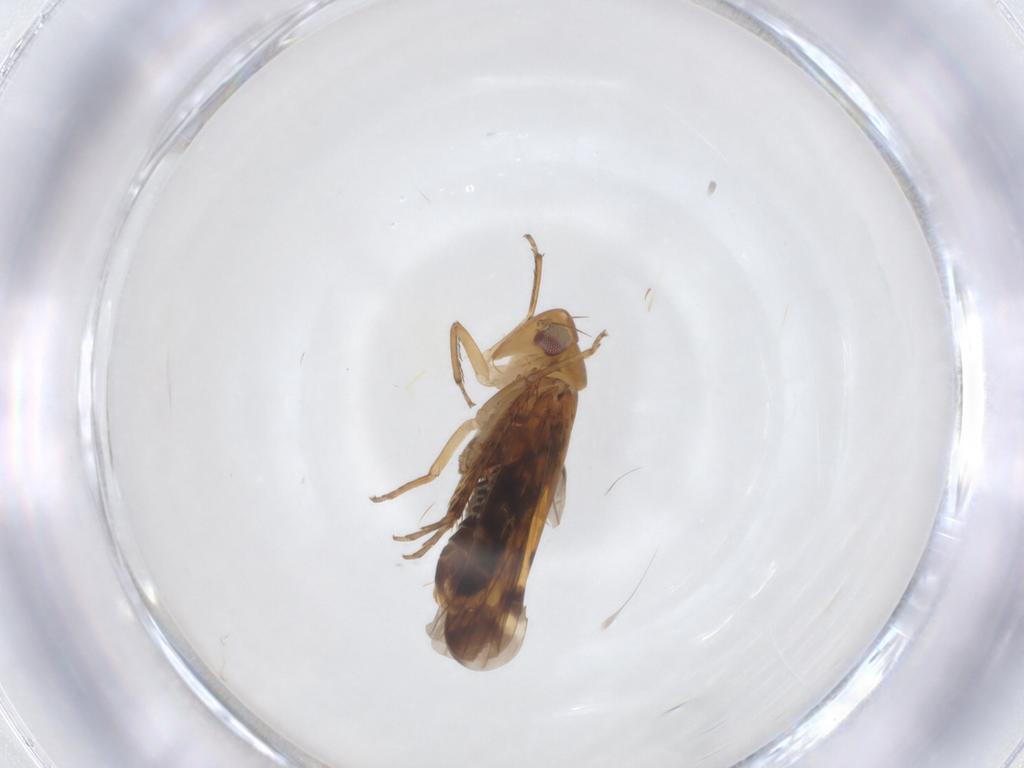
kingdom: Animalia
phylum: Arthropoda
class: Insecta
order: Hemiptera
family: Cicadellidae
